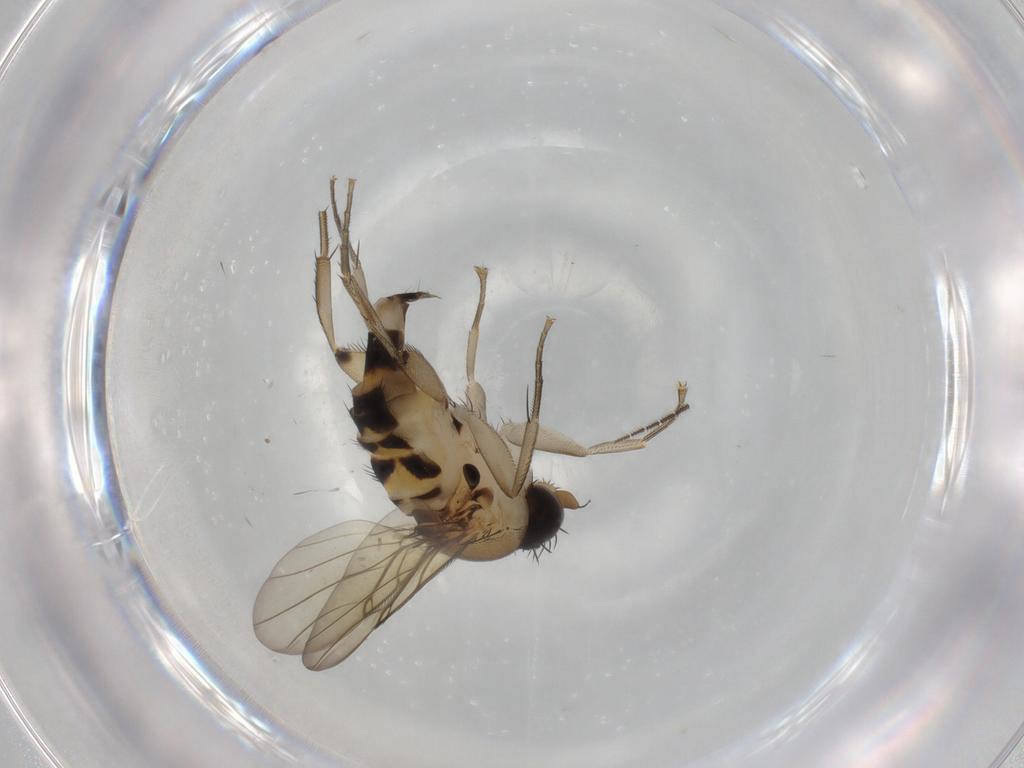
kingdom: Animalia
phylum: Arthropoda
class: Insecta
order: Diptera
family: Phoridae
